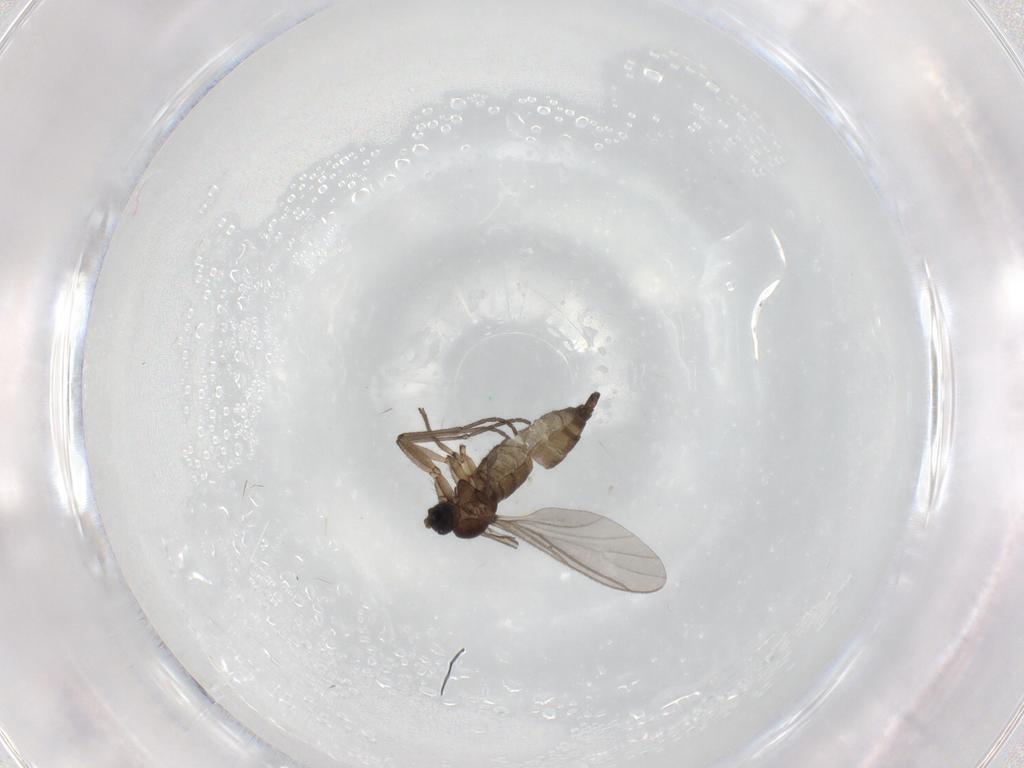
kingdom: Animalia
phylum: Arthropoda
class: Insecta
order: Diptera
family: Sciaridae
